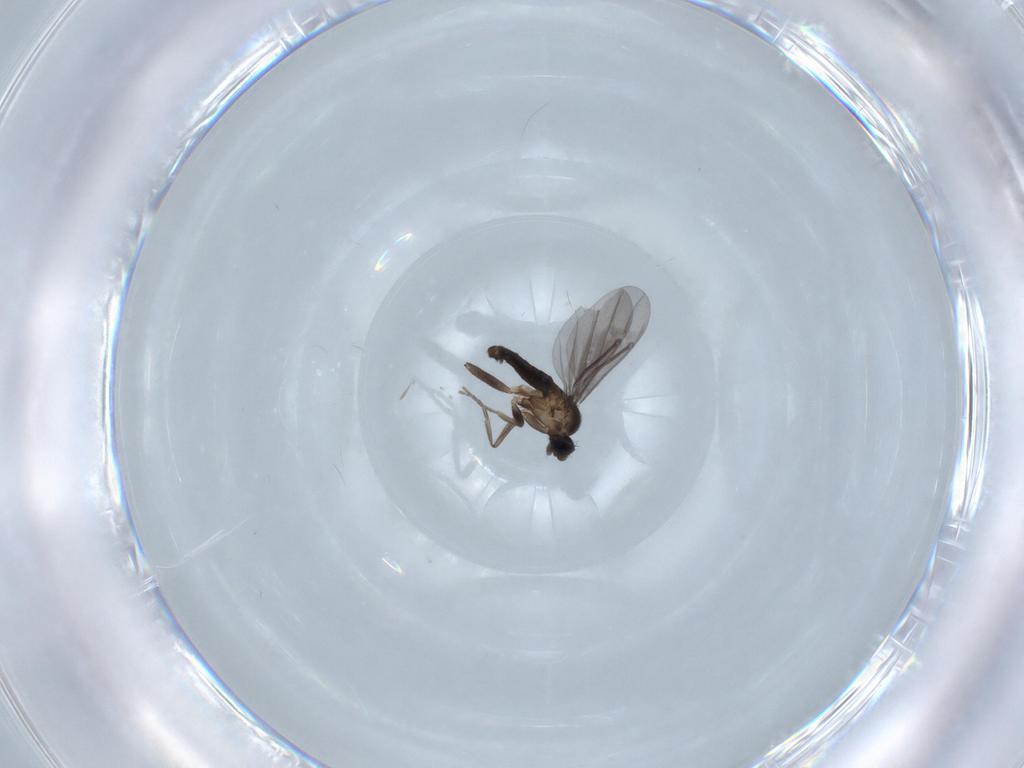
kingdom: Animalia
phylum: Arthropoda
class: Insecta
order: Diptera
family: Phoridae
